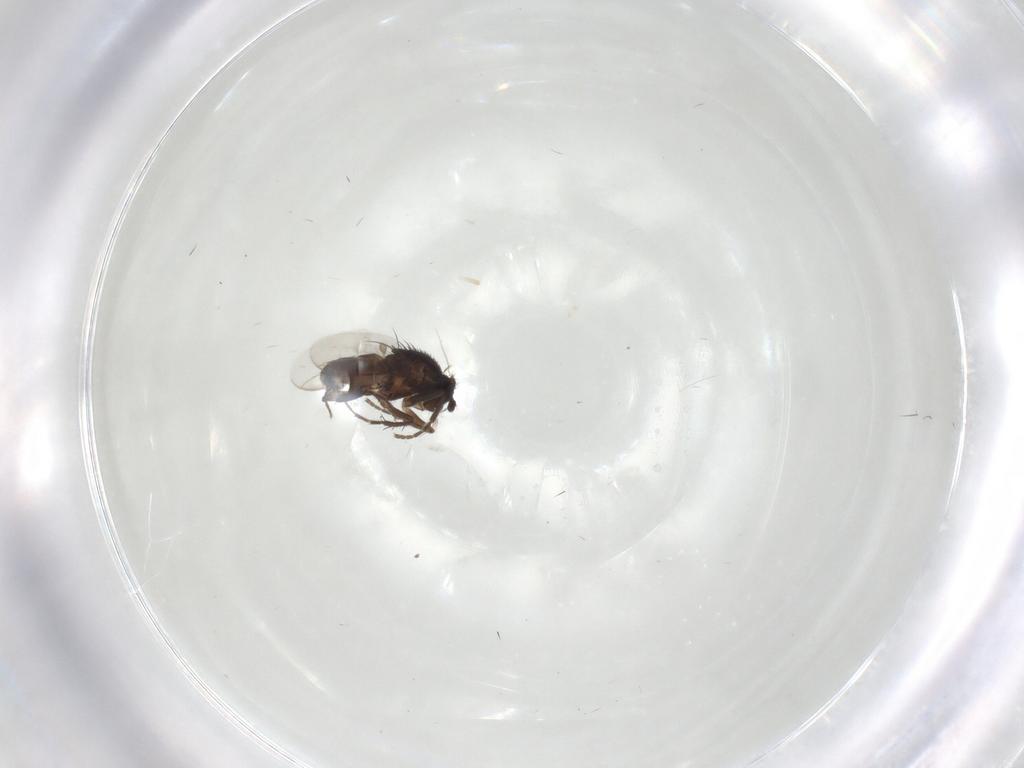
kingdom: Animalia
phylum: Arthropoda
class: Insecta
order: Diptera
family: Sphaeroceridae
